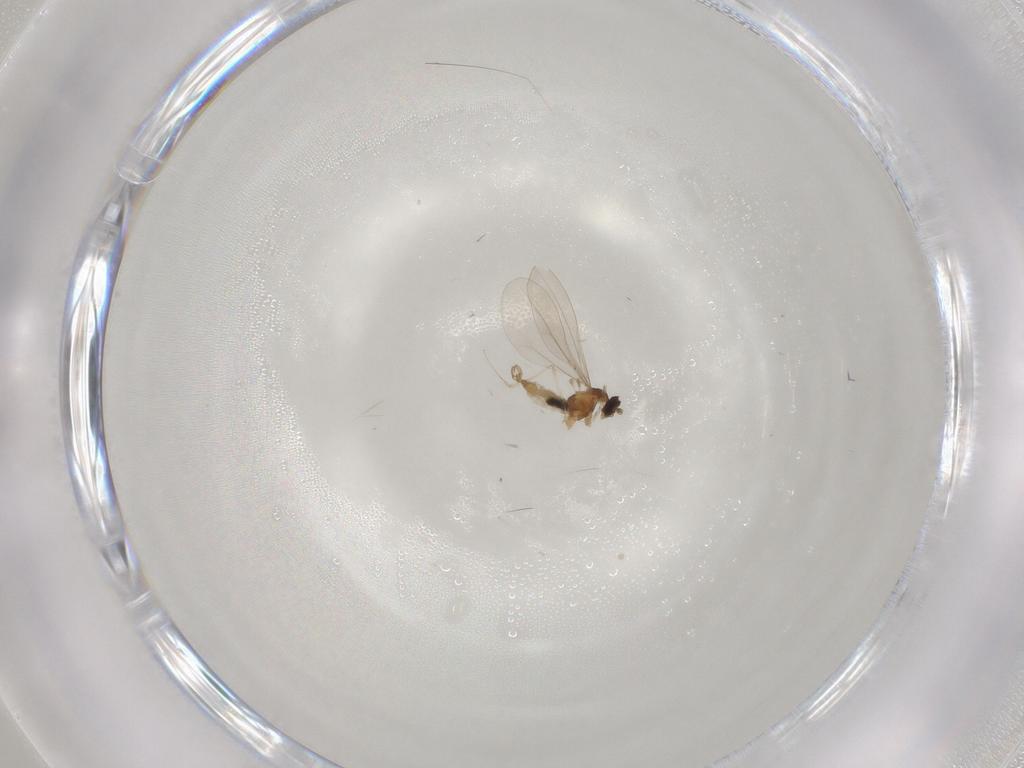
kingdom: Animalia
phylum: Arthropoda
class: Insecta
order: Diptera
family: Cecidomyiidae
